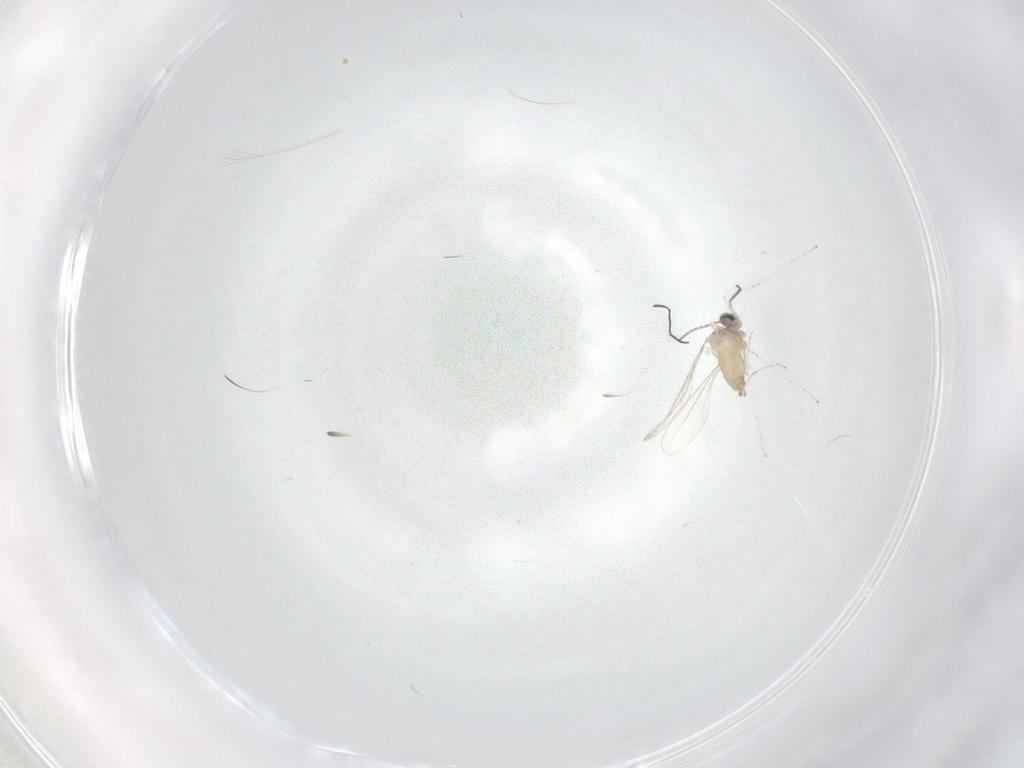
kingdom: Animalia
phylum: Arthropoda
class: Insecta
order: Diptera
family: Cecidomyiidae
